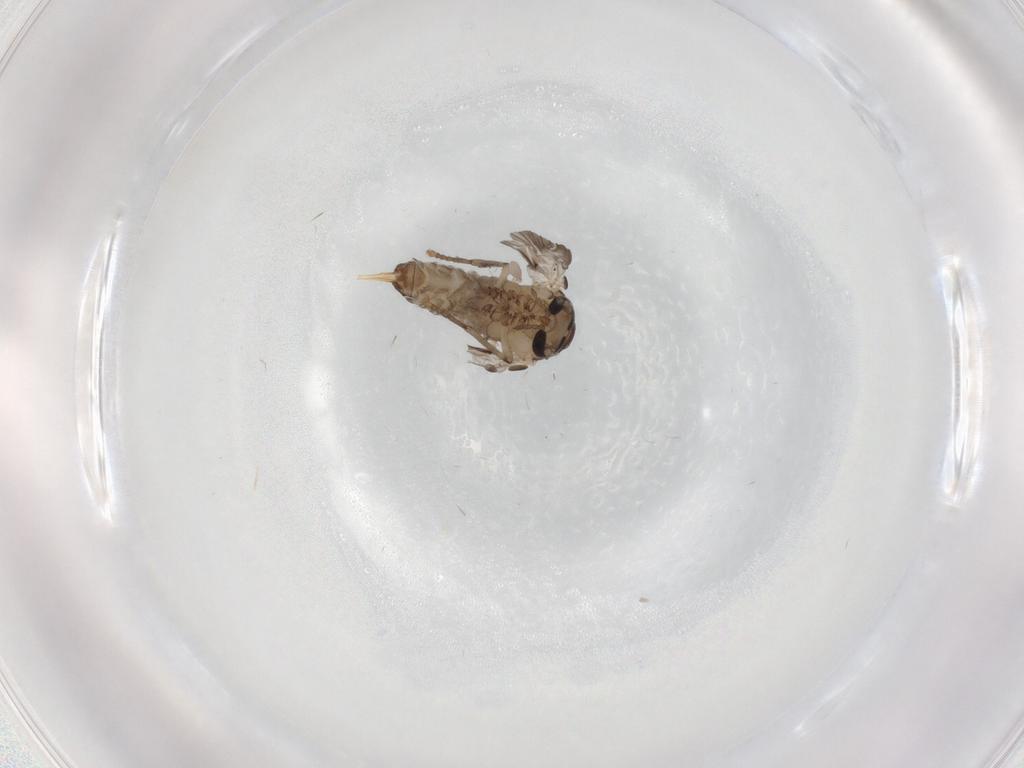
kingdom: Animalia
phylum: Arthropoda
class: Insecta
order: Diptera
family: Psychodidae
